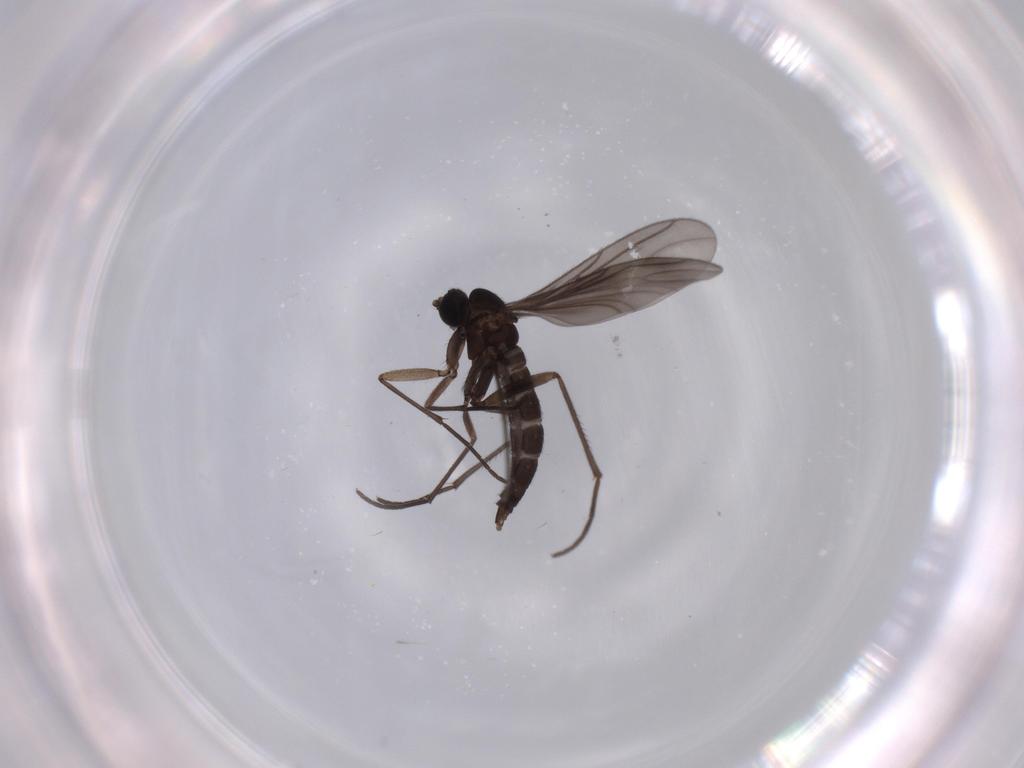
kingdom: Animalia
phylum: Arthropoda
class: Insecta
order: Diptera
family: Sciaridae
